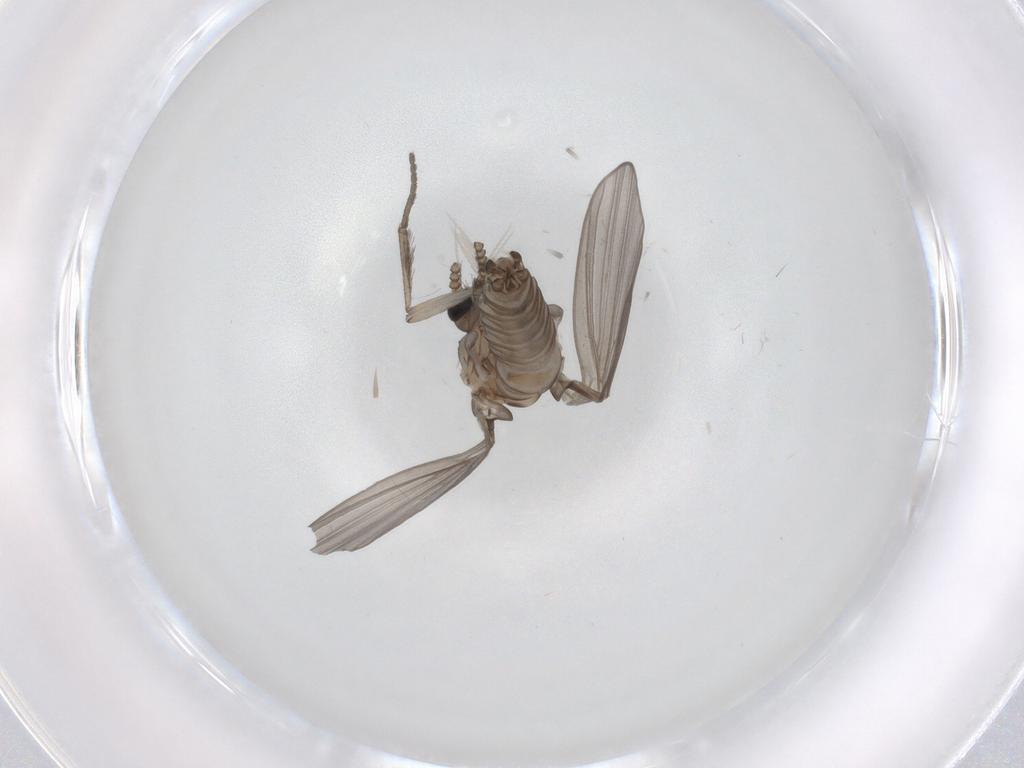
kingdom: Animalia
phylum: Arthropoda
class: Insecta
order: Diptera
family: Chironomidae
